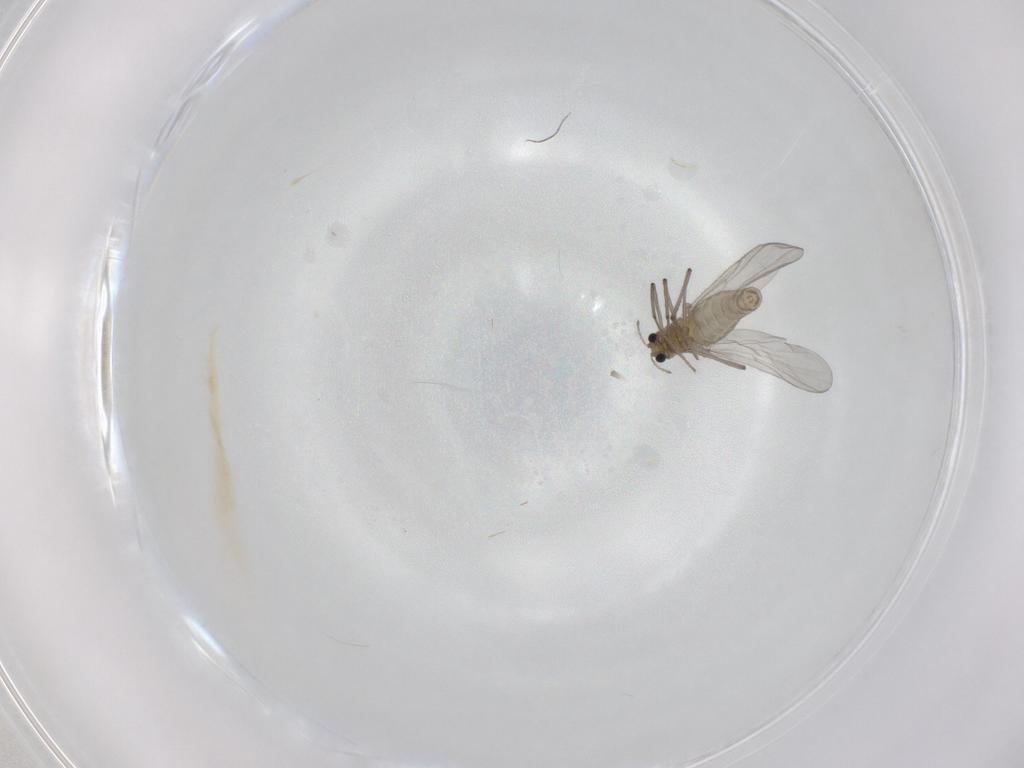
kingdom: Animalia
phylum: Arthropoda
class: Insecta
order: Diptera
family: Chironomidae
